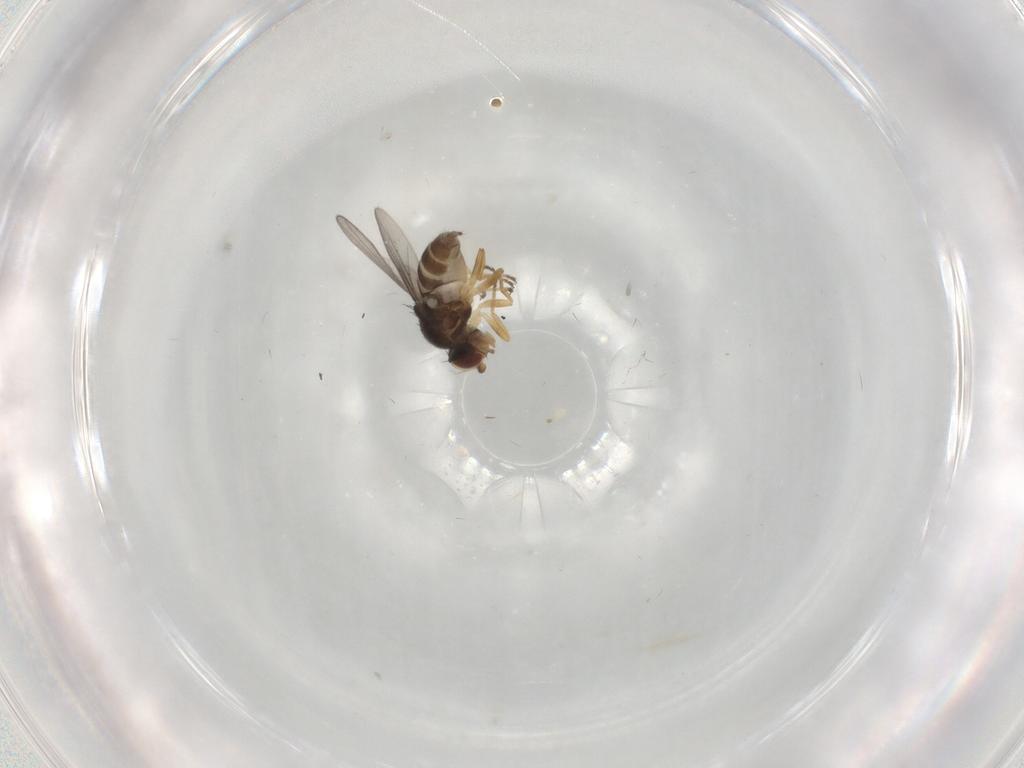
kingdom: Animalia
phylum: Arthropoda
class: Insecta
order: Diptera
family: Chloropidae
